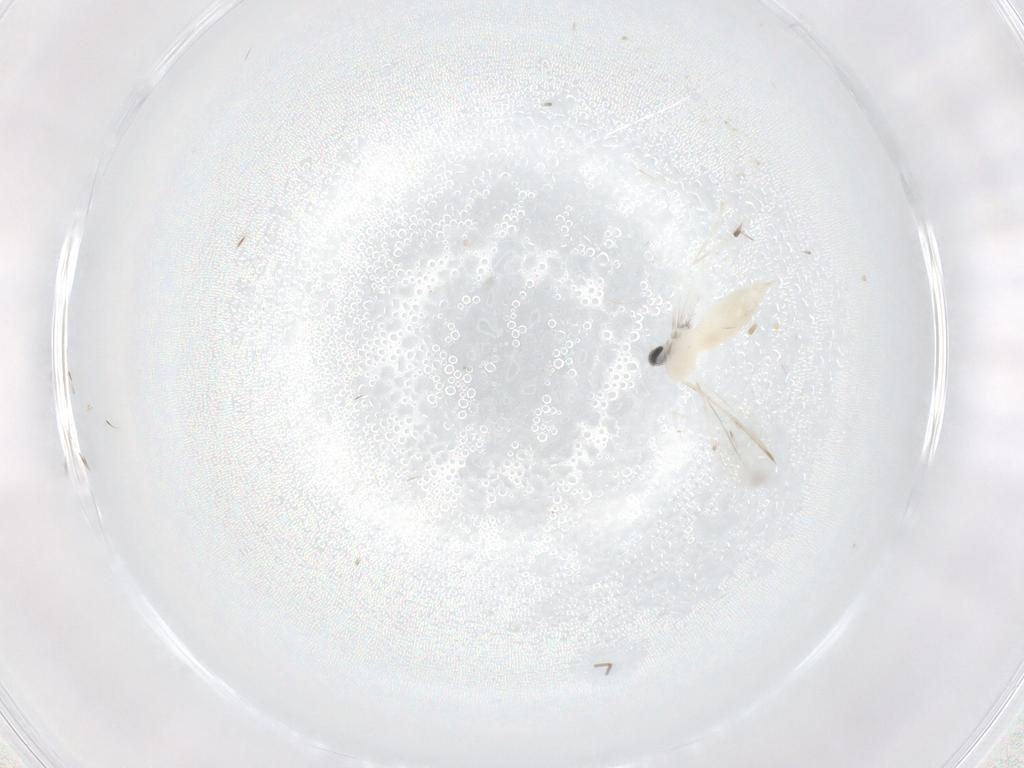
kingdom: Animalia
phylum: Arthropoda
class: Insecta
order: Diptera
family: Cecidomyiidae
